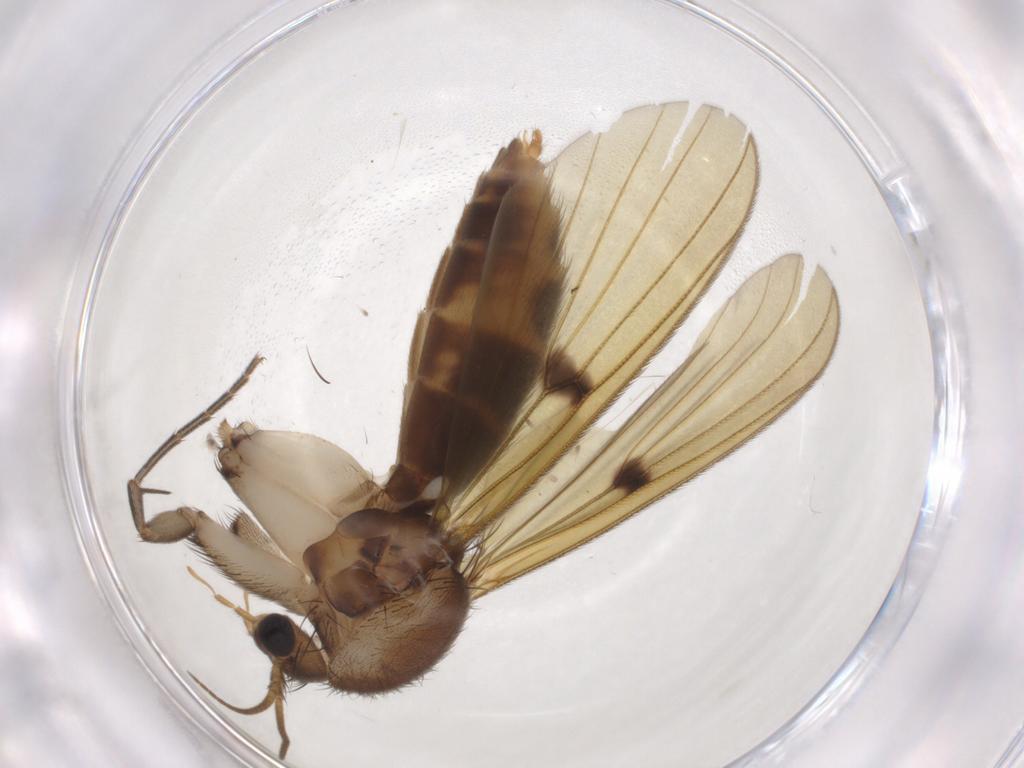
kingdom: Animalia
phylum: Arthropoda
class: Insecta
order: Diptera
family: Mycetophilidae
